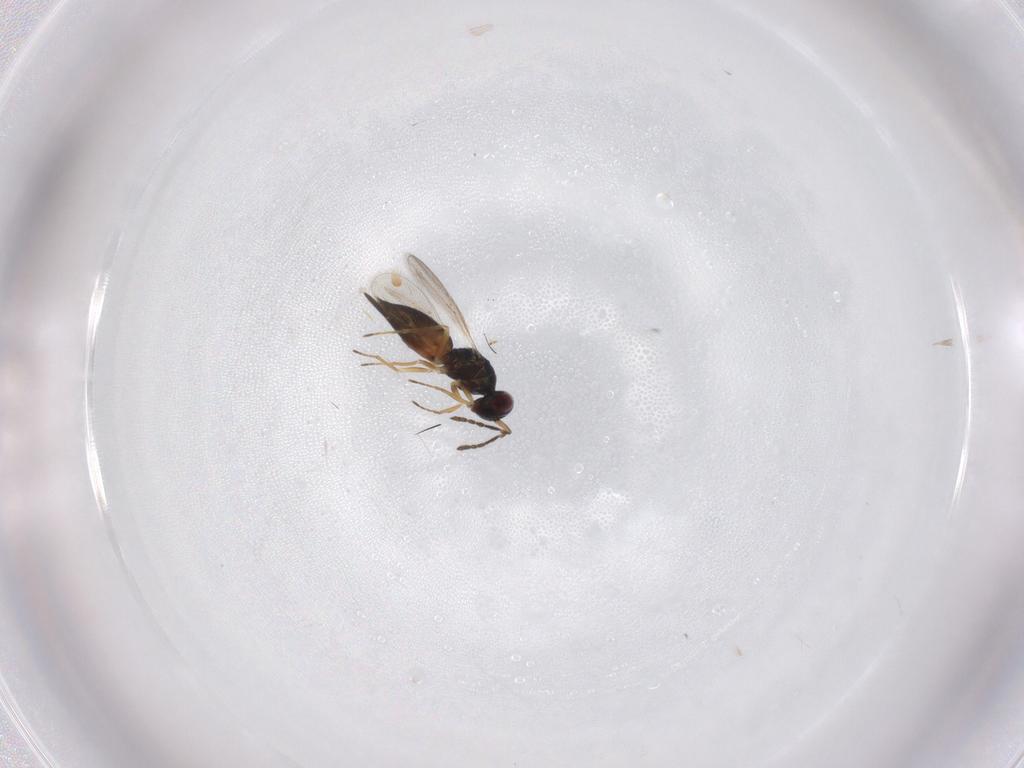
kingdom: Animalia
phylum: Arthropoda
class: Insecta
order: Hymenoptera
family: Eulophidae
